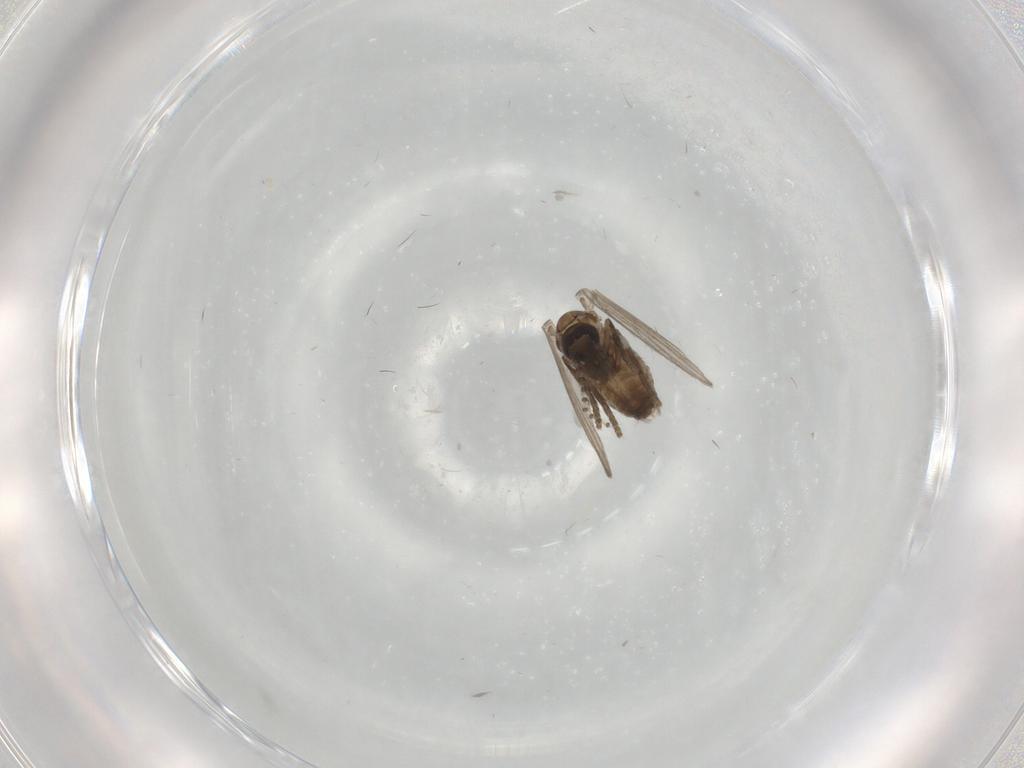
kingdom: Animalia
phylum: Arthropoda
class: Insecta
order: Diptera
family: Psychodidae
